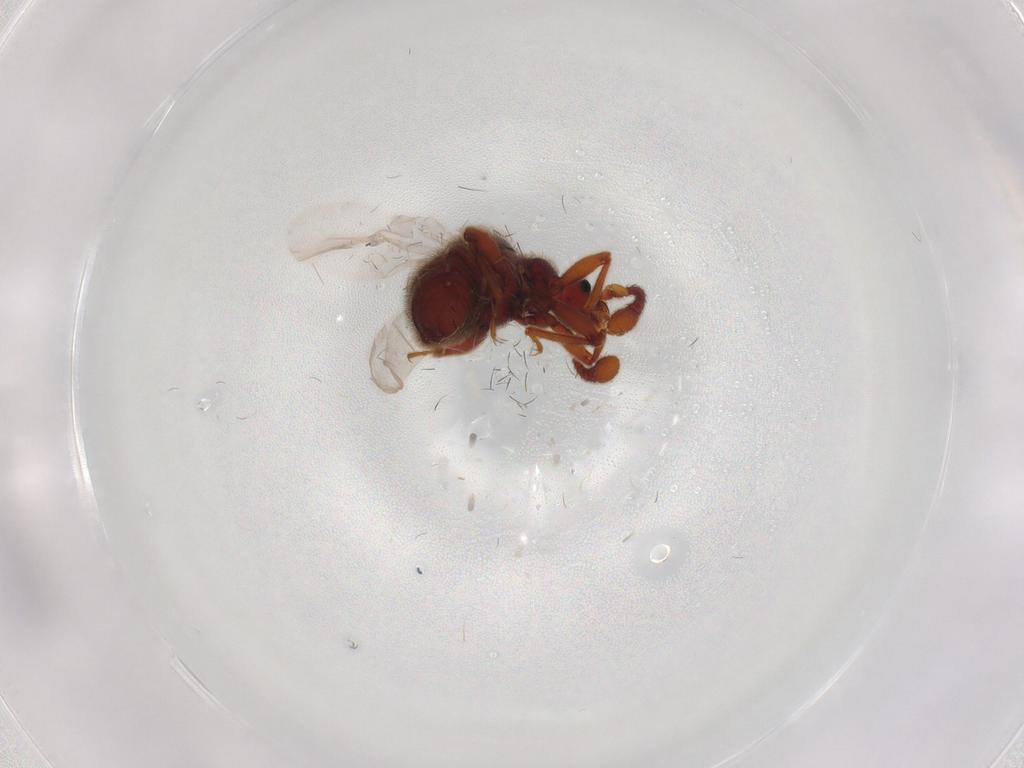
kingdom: Animalia
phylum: Arthropoda
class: Insecta
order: Coleoptera
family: Staphylinidae
